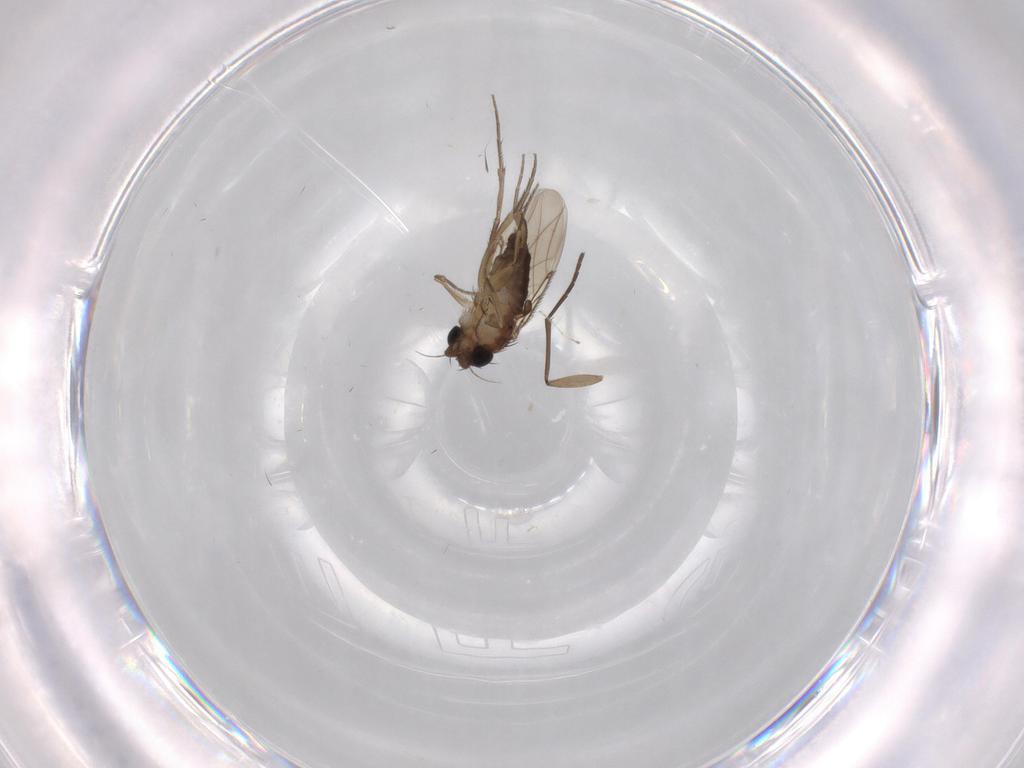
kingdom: Animalia
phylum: Arthropoda
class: Insecta
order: Diptera
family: Phoridae
